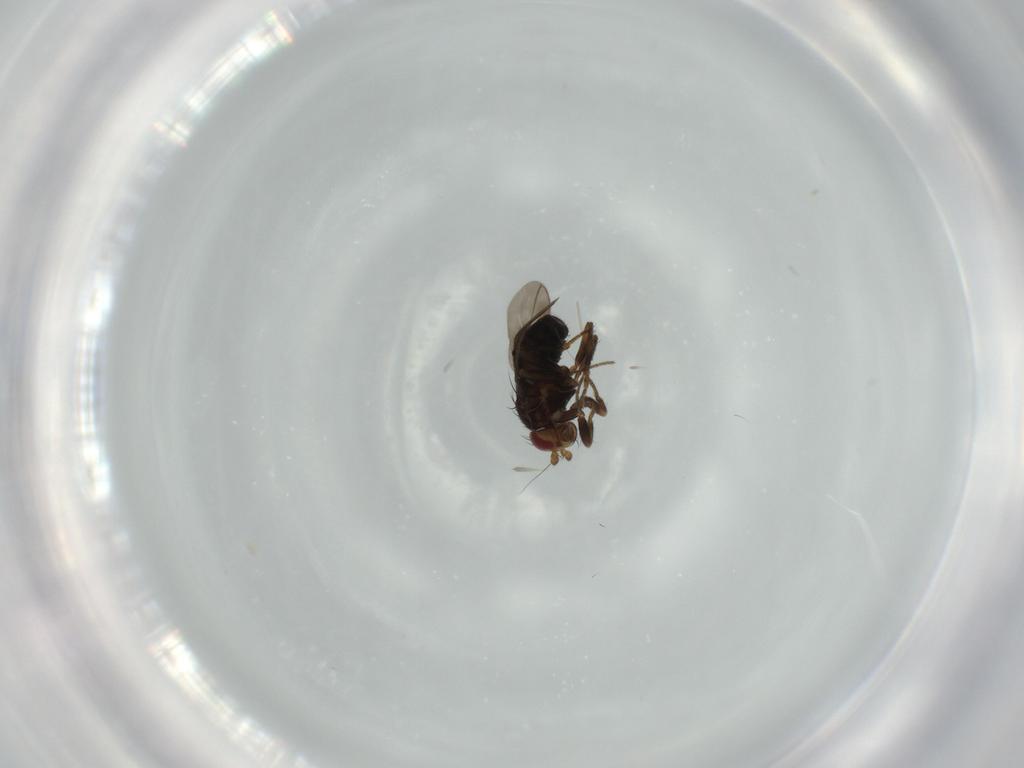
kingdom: Animalia
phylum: Arthropoda
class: Insecta
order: Diptera
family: Sphaeroceridae
